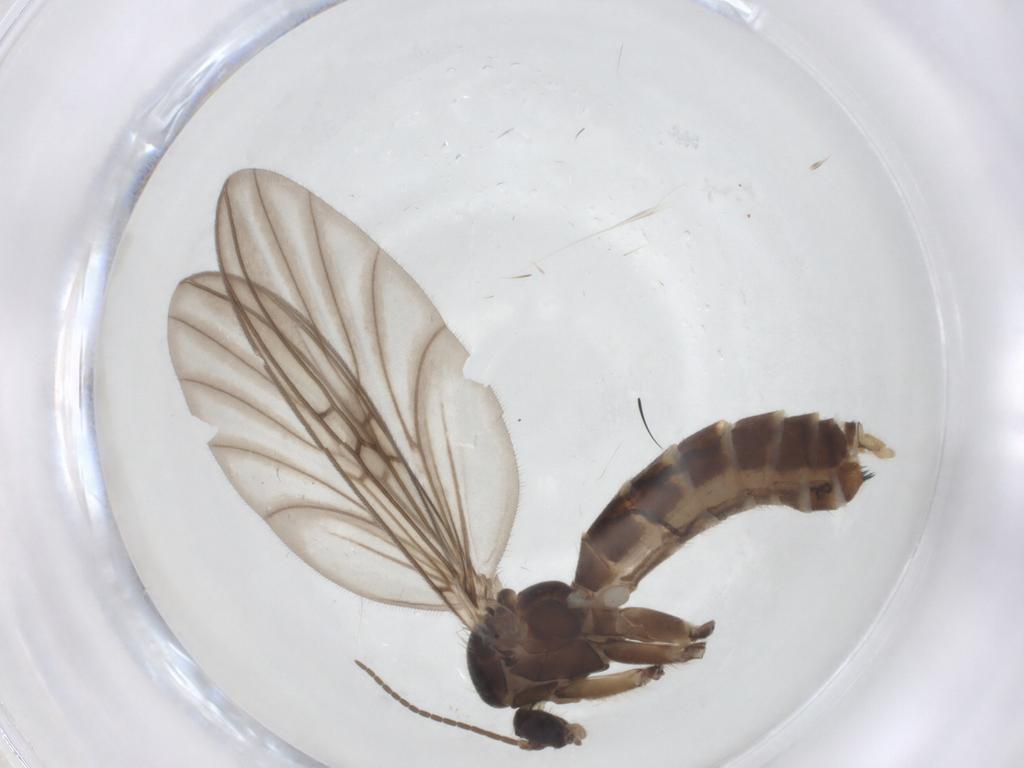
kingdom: Animalia
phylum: Arthropoda
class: Insecta
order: Diptera
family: Mycetophilidae
